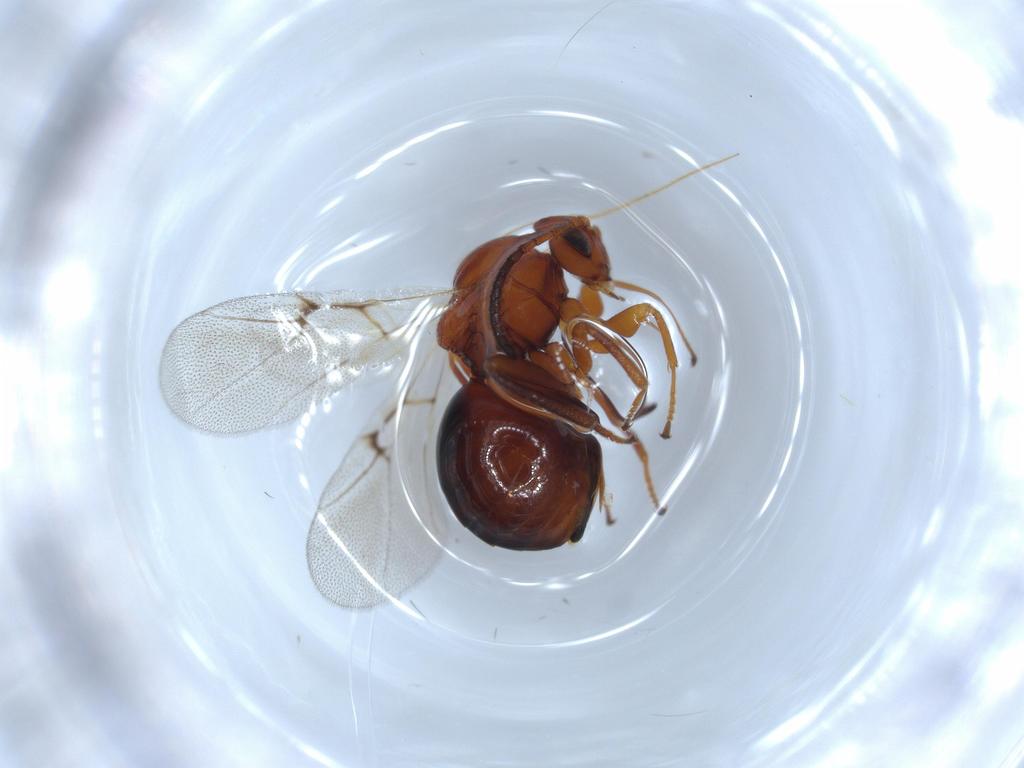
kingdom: Animalia
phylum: Arthropoda
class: Insecta
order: Hymenoptera
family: Cynipidae
